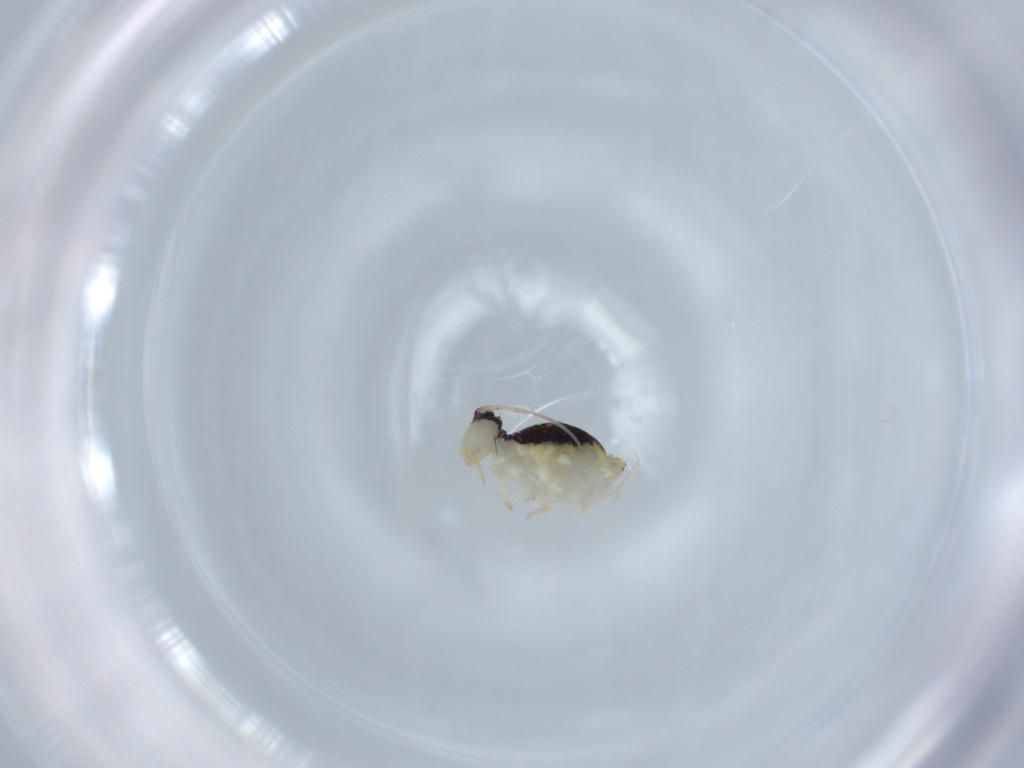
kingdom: Animalia
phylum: Arthropoda
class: Collembola
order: Symphypleona
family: Bourletiellidae
